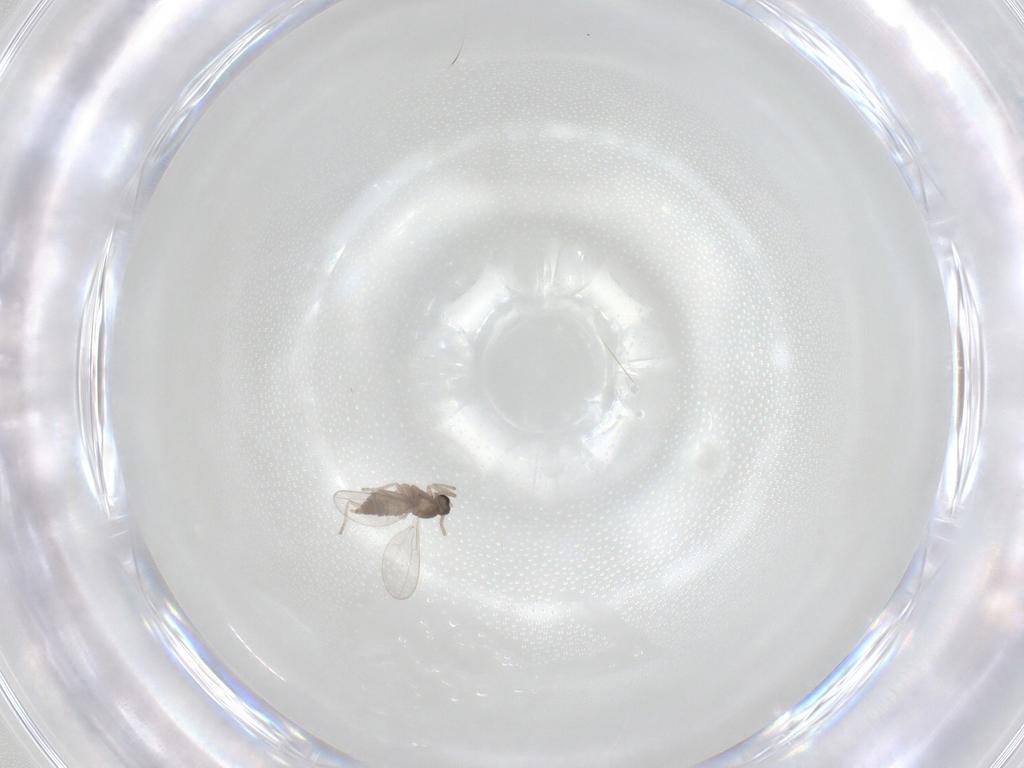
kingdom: Animalia
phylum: Arthropoda
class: Insecta
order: Diptera
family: Cecidomyiidae
